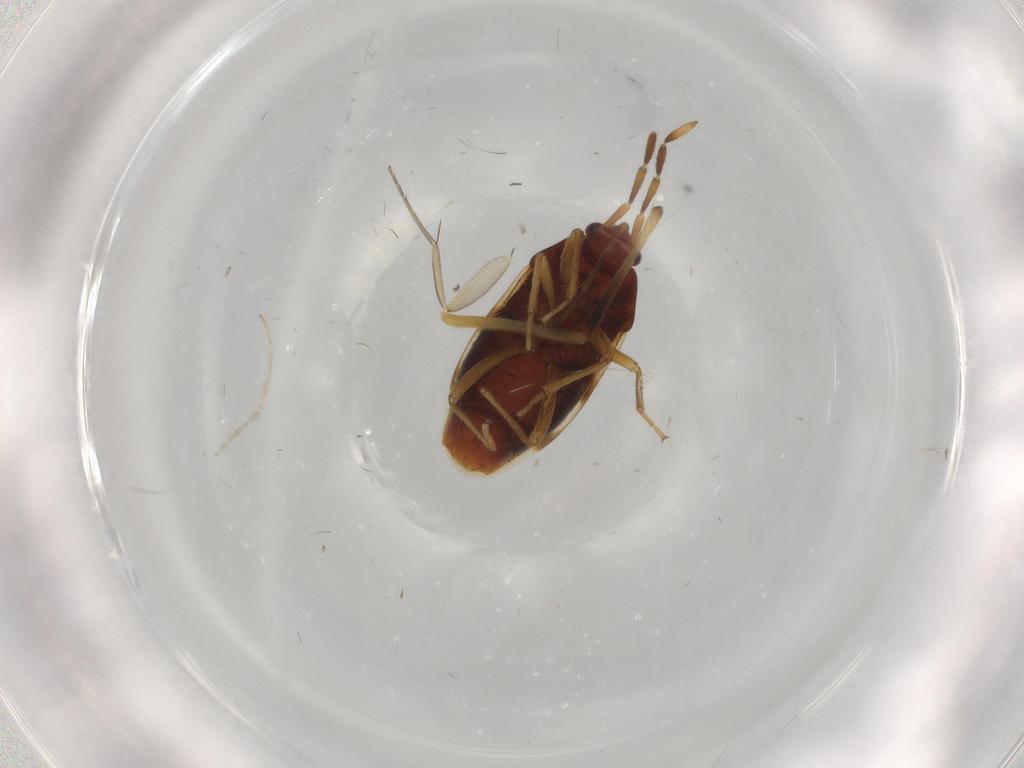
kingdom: Animalia
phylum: Arthropoda
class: Insecta
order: Hemiptera
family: Rhyparochromidae
